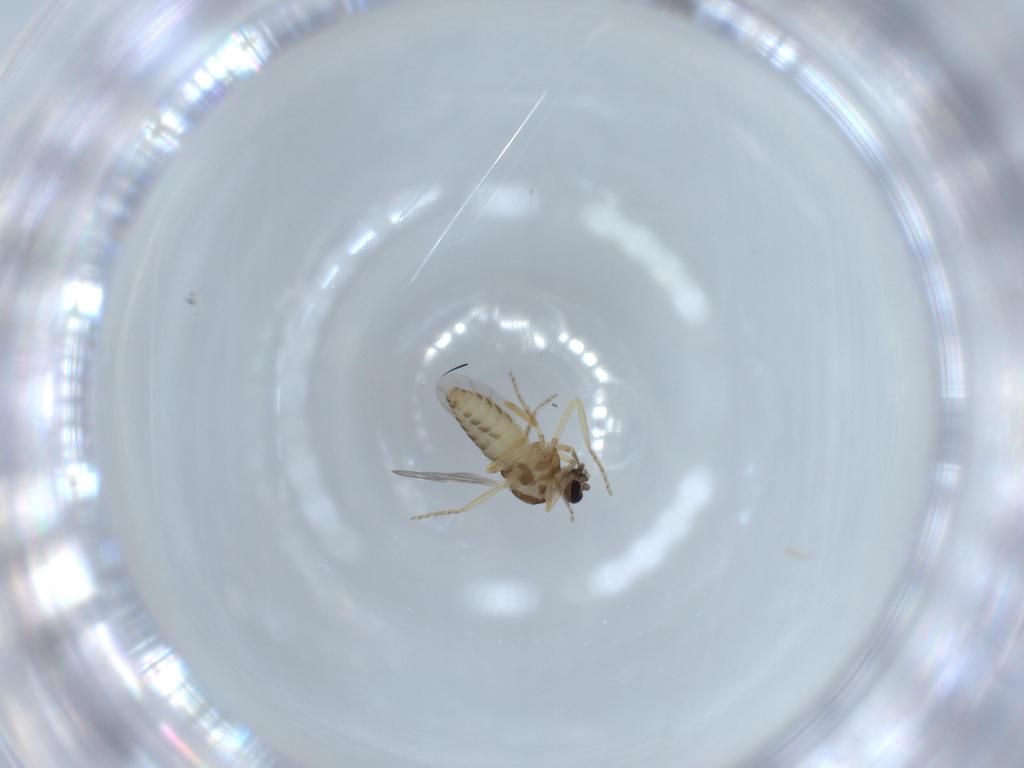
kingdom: Animalia
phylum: Arthropoda
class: Insecta
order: Diptera
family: Ceratopogonidae
